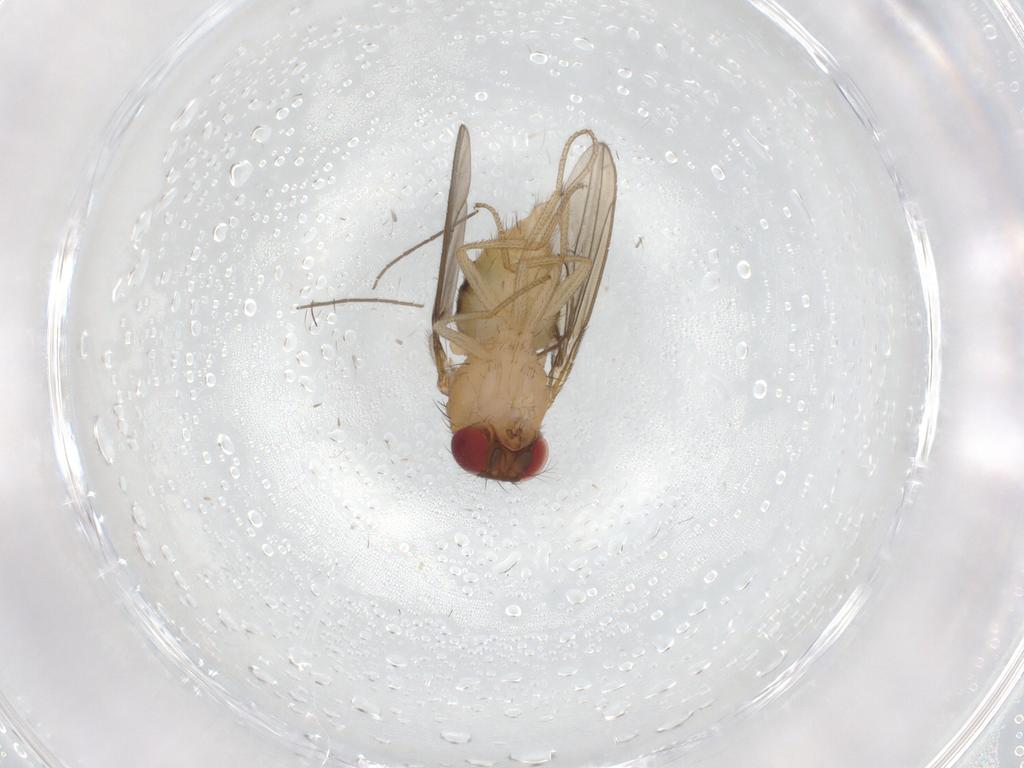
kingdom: Animalia
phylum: Arthropoda
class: Insecta
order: Diptera
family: Drosophilidae
